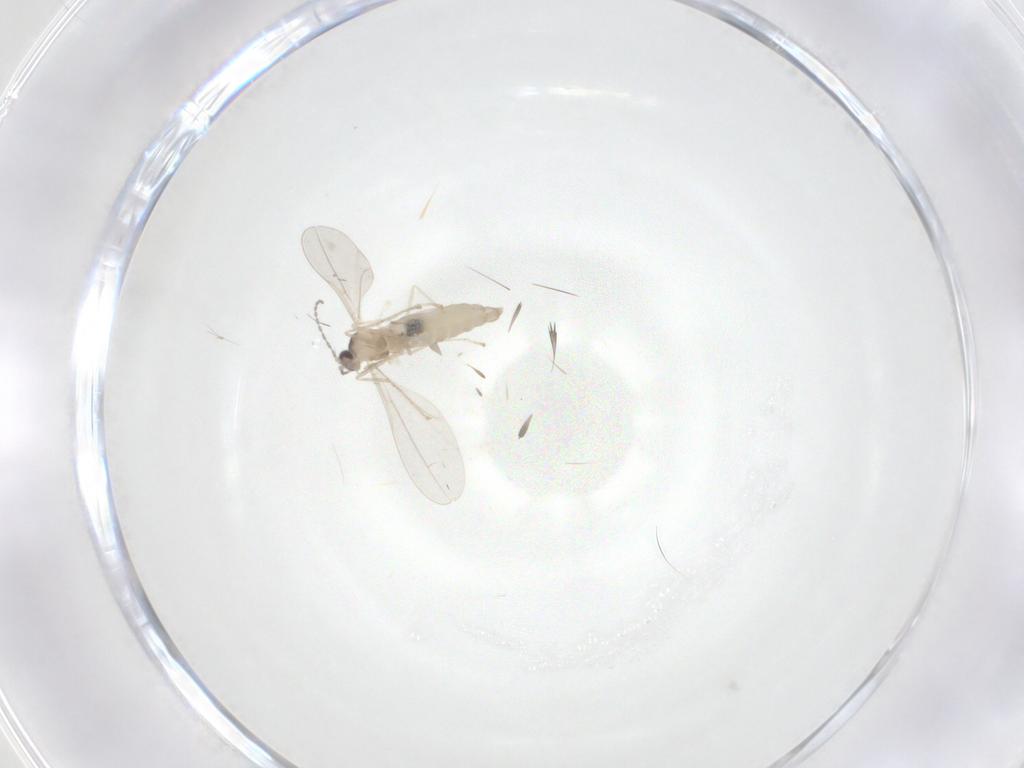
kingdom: Animalia
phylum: Arthropoda
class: Insecta
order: Diptera
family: Cecidomyiidae
